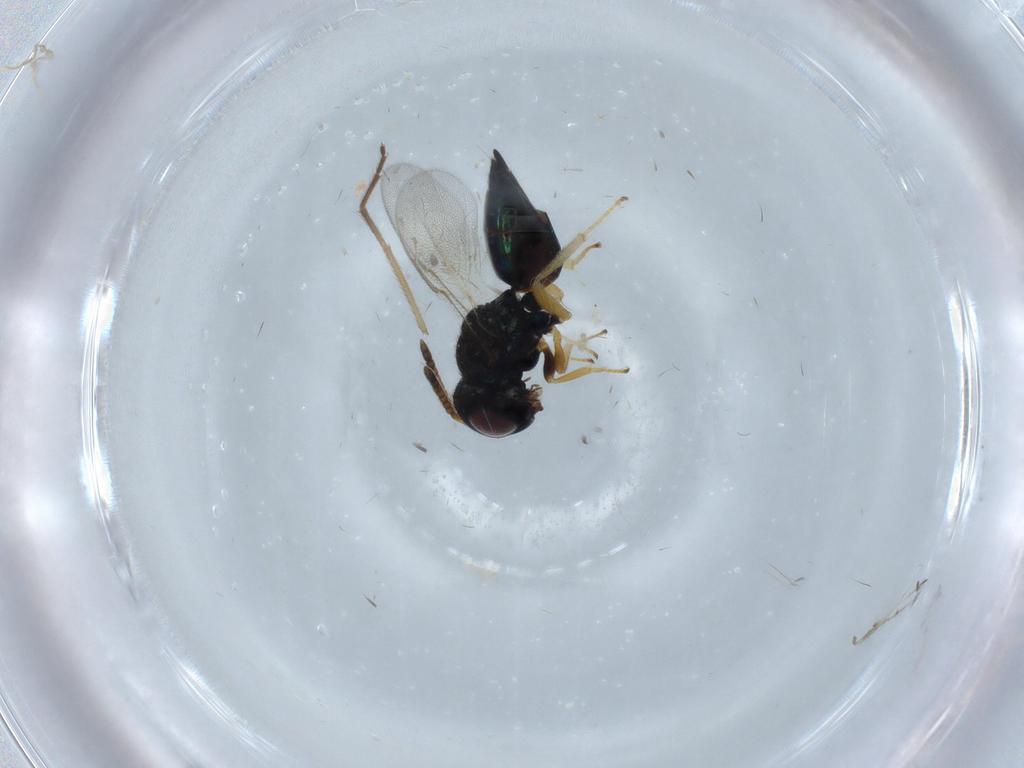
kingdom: Animalia
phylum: Arthropoda
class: Insecta
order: Hymenoptera
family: Pteromalidae
